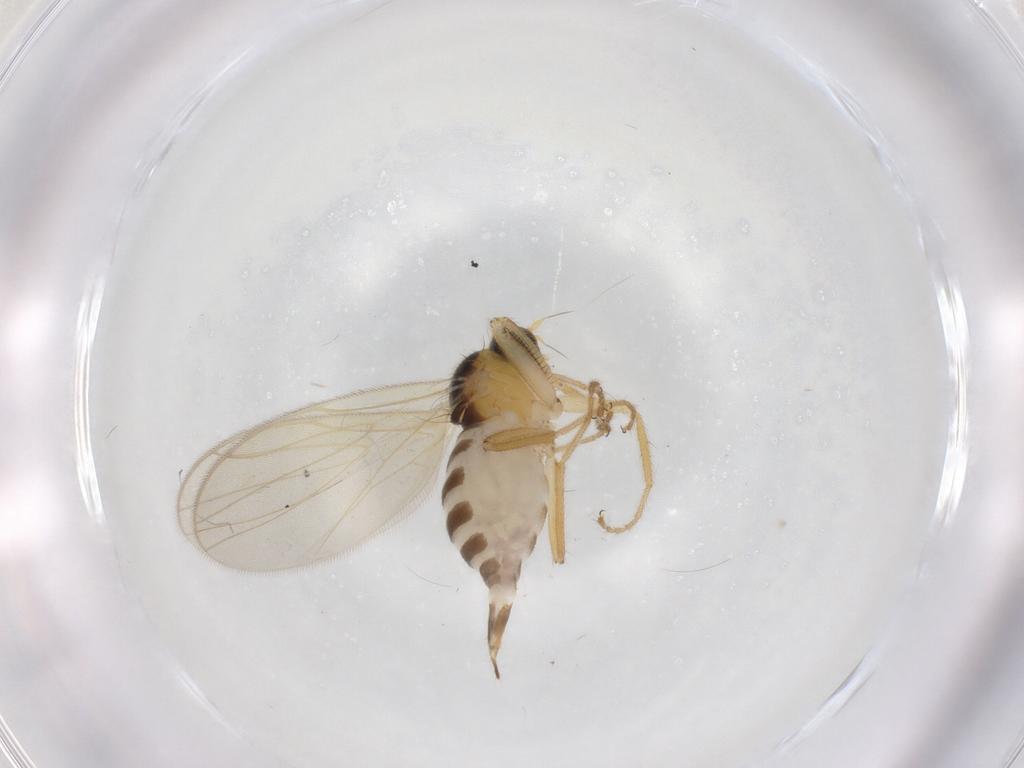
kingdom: Animalia
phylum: Arthropoda
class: Insecta
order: Diptera
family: Hybotidae
